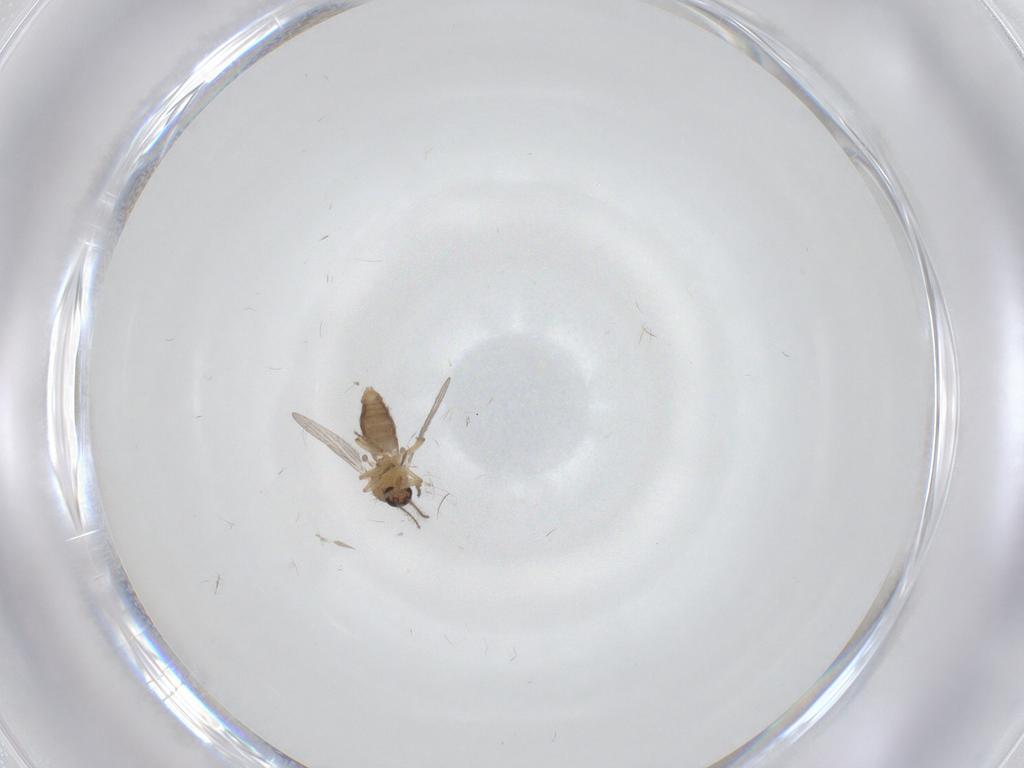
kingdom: Animalia
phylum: Arthropoda
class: Insecta
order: Diptera
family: Ceratopogonidae
